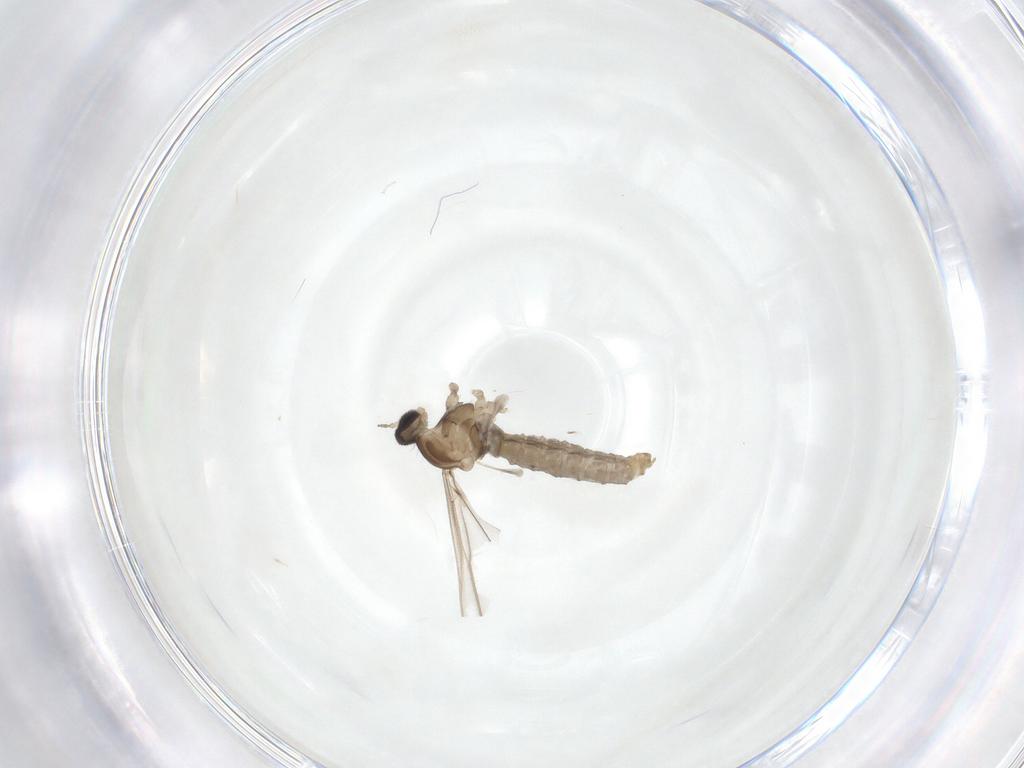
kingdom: Animalia
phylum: Arthropoda
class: Insecta
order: Diptera
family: Cecidomyiidae
